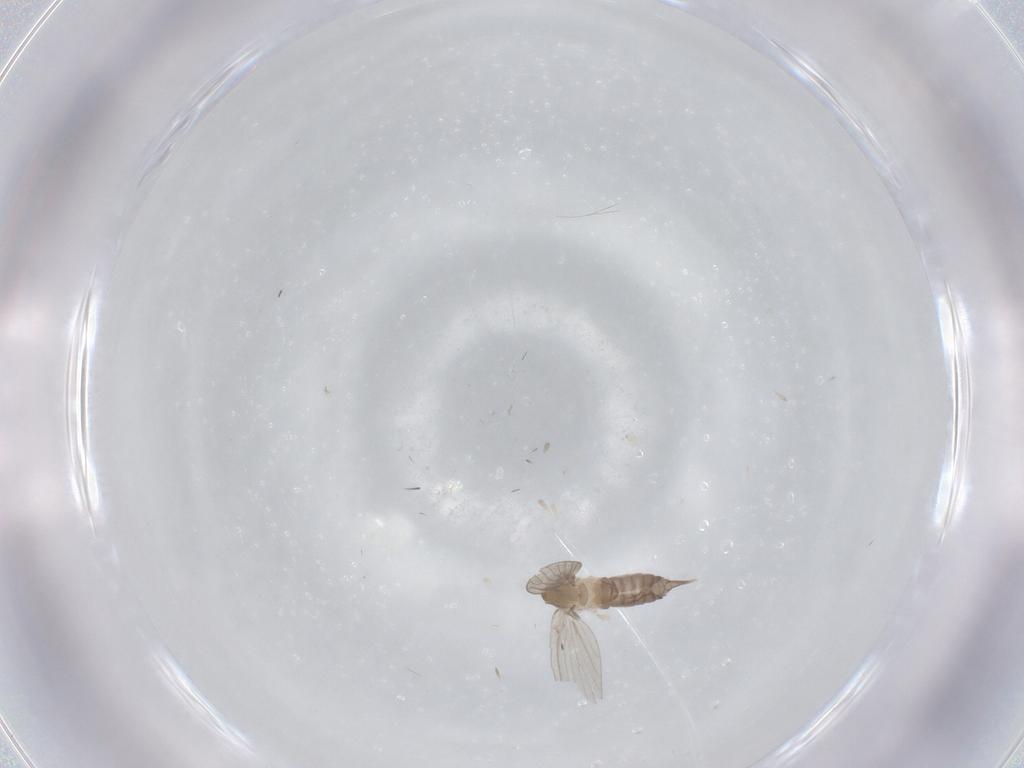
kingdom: Animalia
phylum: Arthropoda
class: Insecta
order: Diptera
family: Psychodidae
